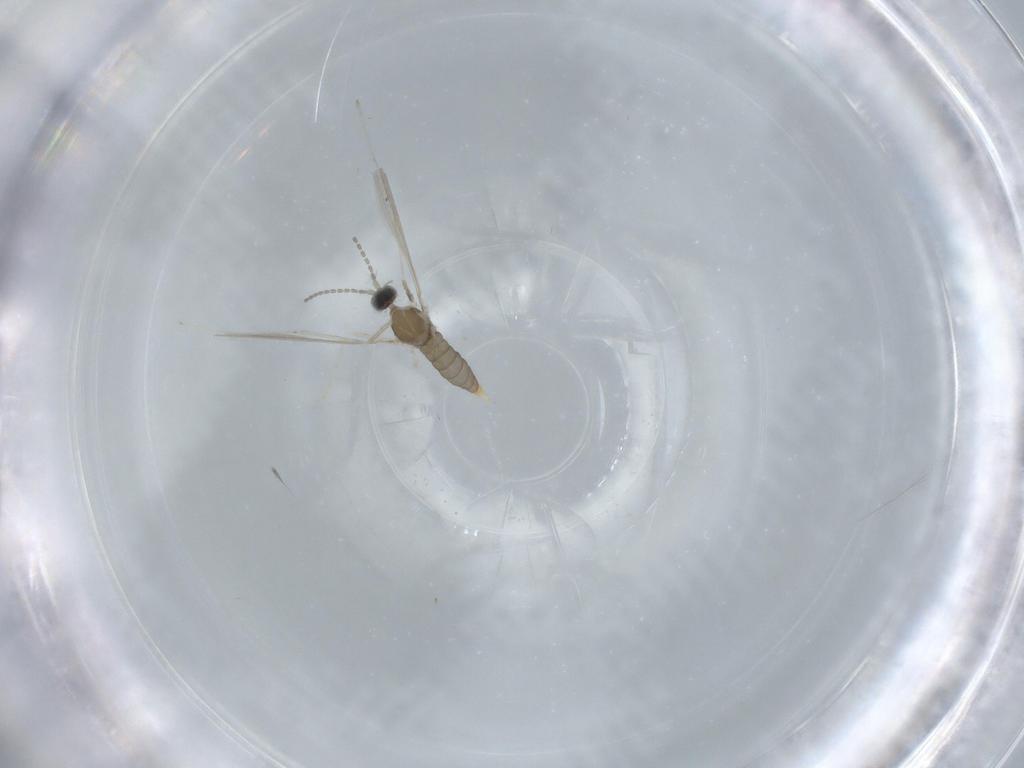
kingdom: Animalia
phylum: Arthropoda
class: Insecta
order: Diptera
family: Cecidomyiidae
